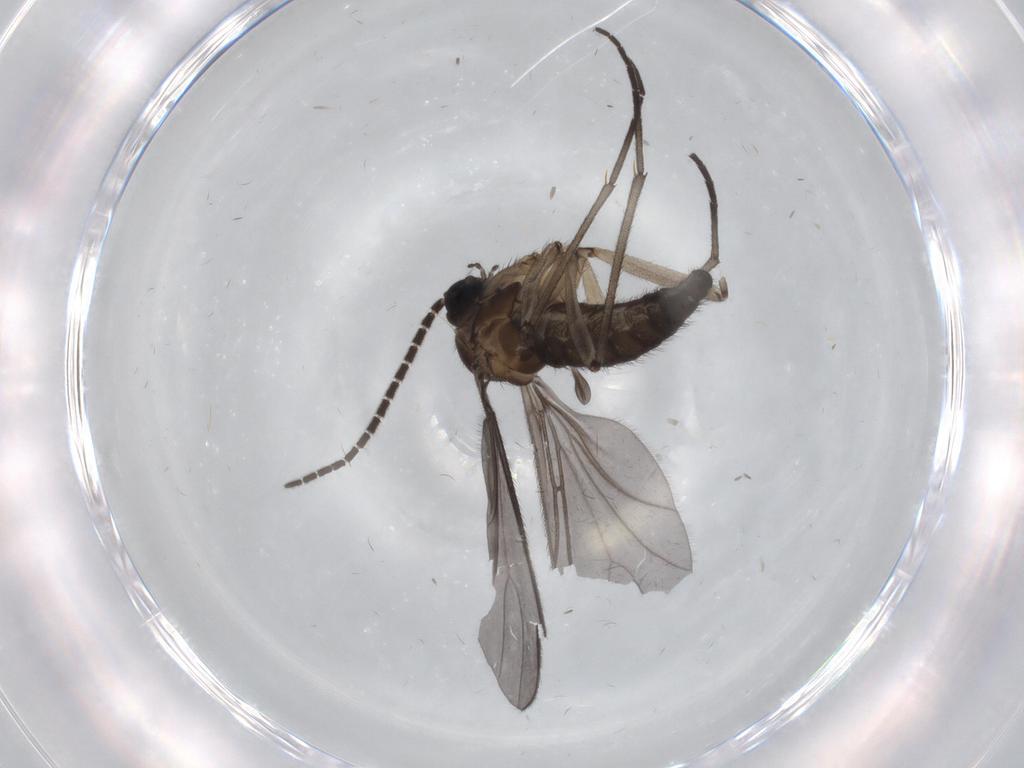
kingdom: Animalia
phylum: Arthropoda
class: Insecta
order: Diptera
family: Sciaridae
